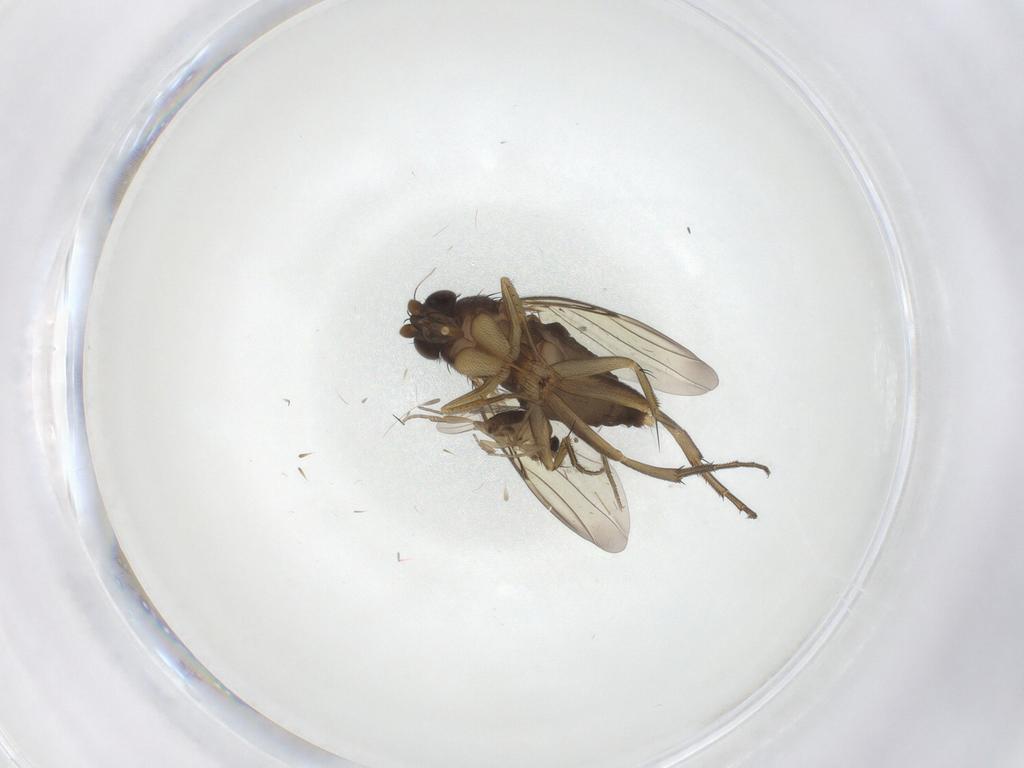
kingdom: Animalia
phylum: Arthropoda
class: Insecta
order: Diptera
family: Phoridae
